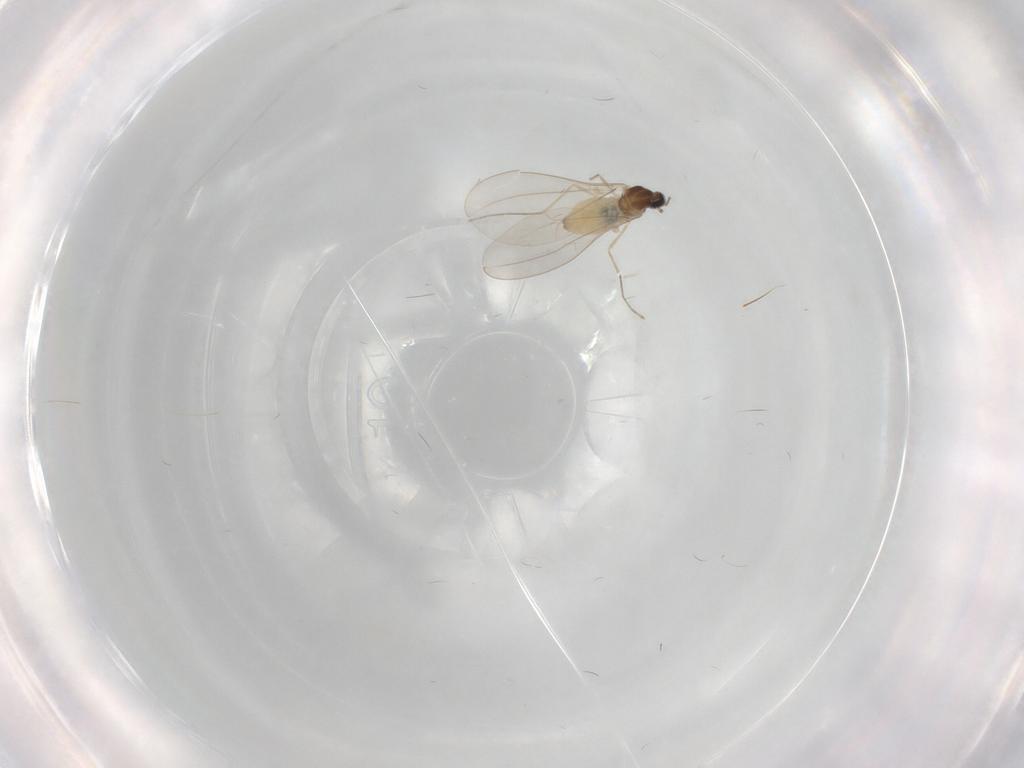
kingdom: Animalia
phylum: Arthropoda
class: Insecta
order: Diptera
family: Cecidomyiidae
